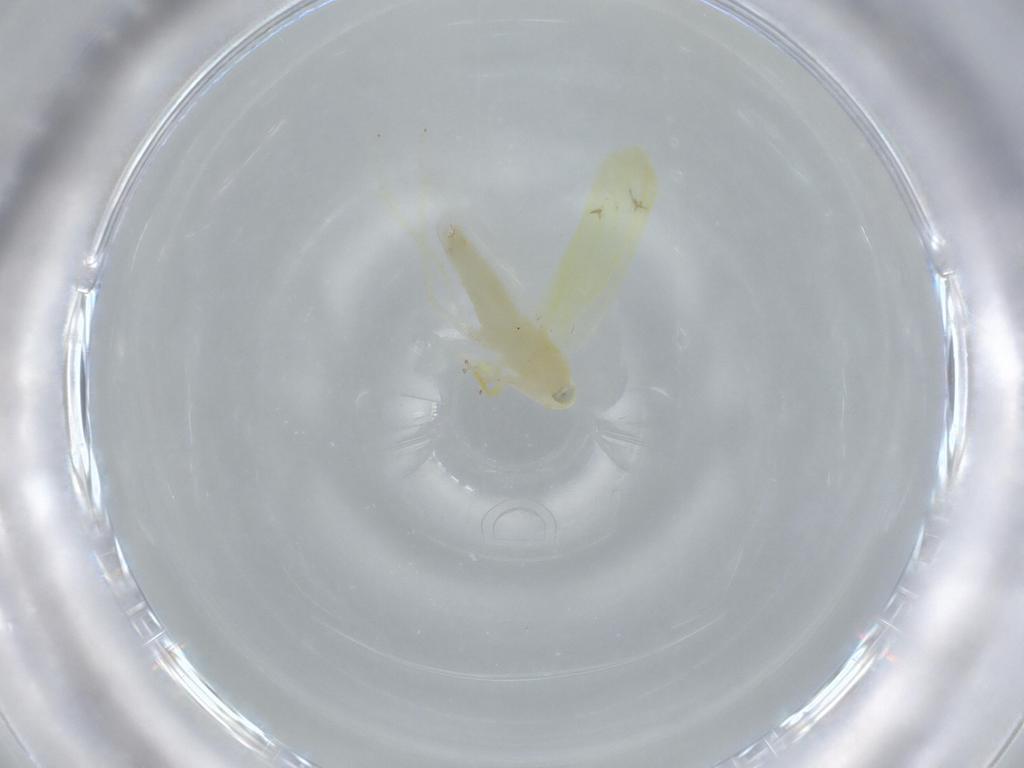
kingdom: Animalia
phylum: Arthropoda
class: Insecta
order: Hemiptera
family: Cicadellidae
